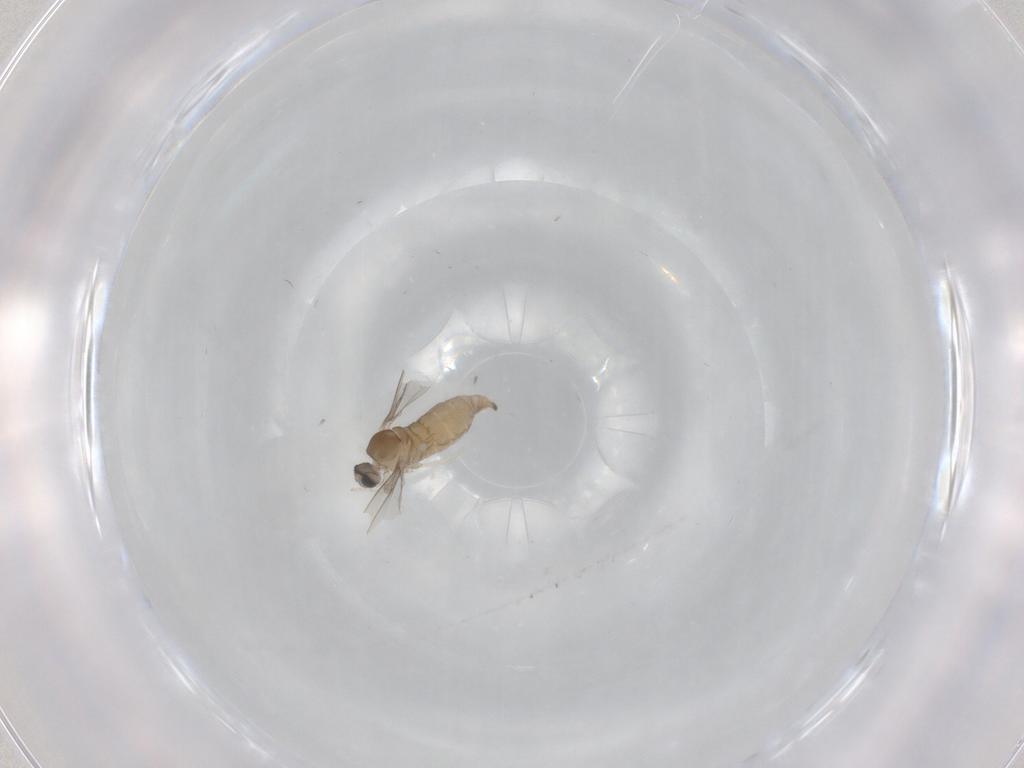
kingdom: Animalia
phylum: Arthropoda
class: Insecta
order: Diptera
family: Cecidomyiidae
